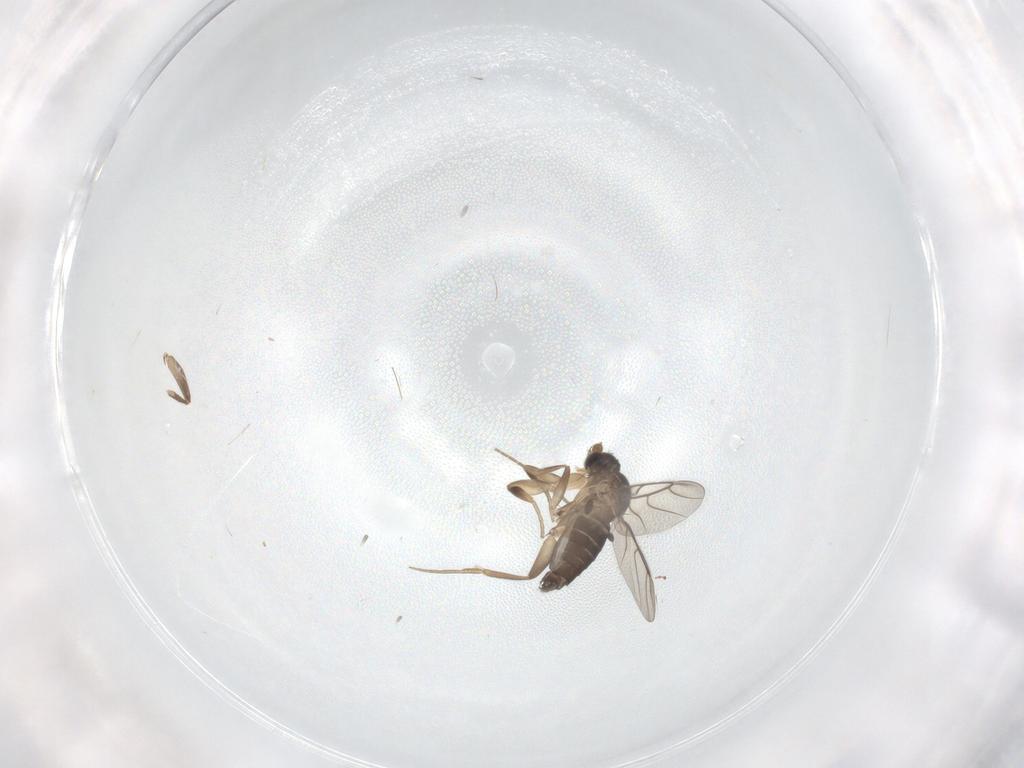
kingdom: Animalia
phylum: Arthropoda
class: Insecta
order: Diptera
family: Phoridae
